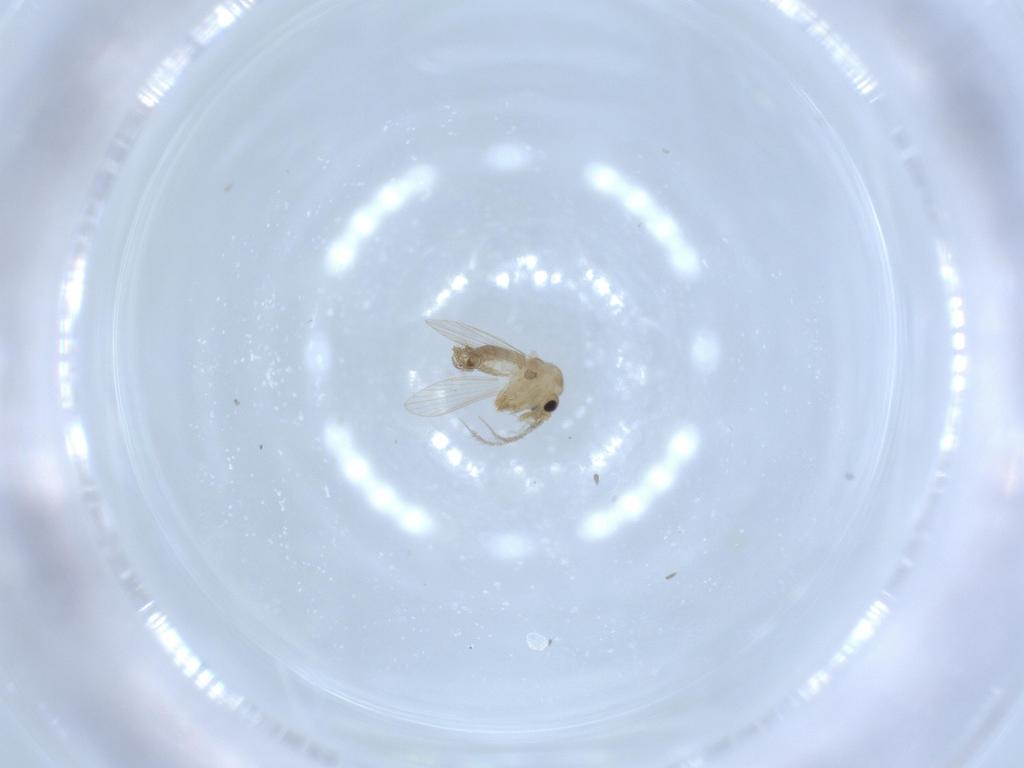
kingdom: Animalia
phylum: Arthropoda
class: Insecta
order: Diptera
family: Psychodidae
